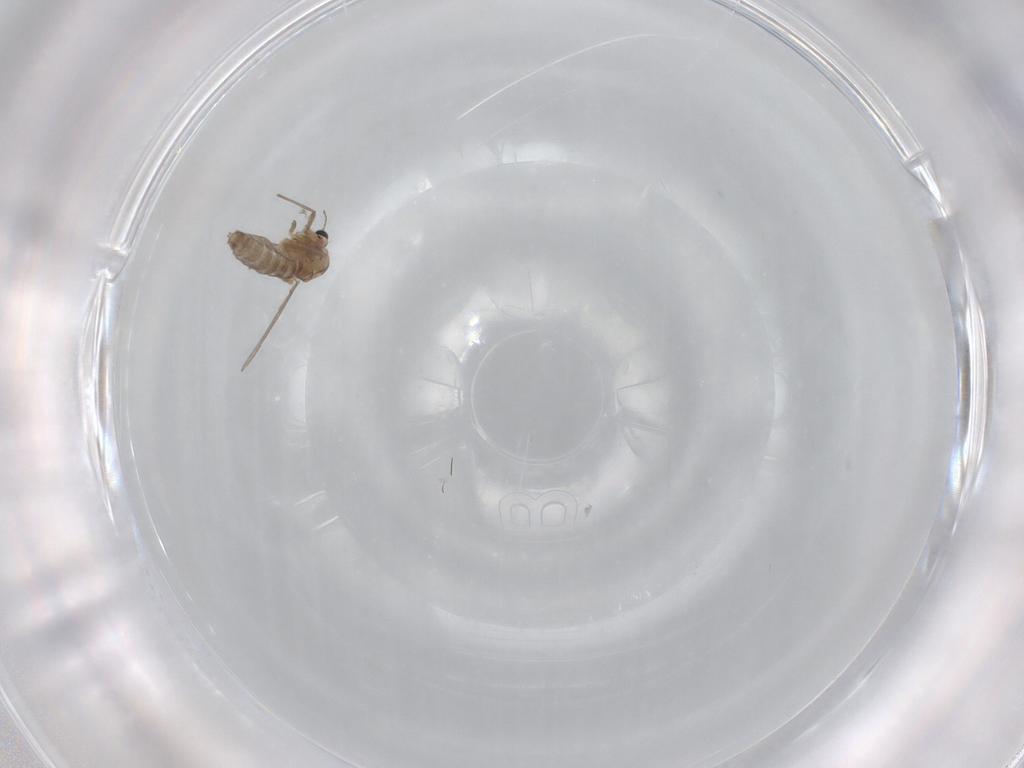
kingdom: Animalia
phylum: Arthropoda
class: Insecta
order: Diptera
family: Chironomidae
